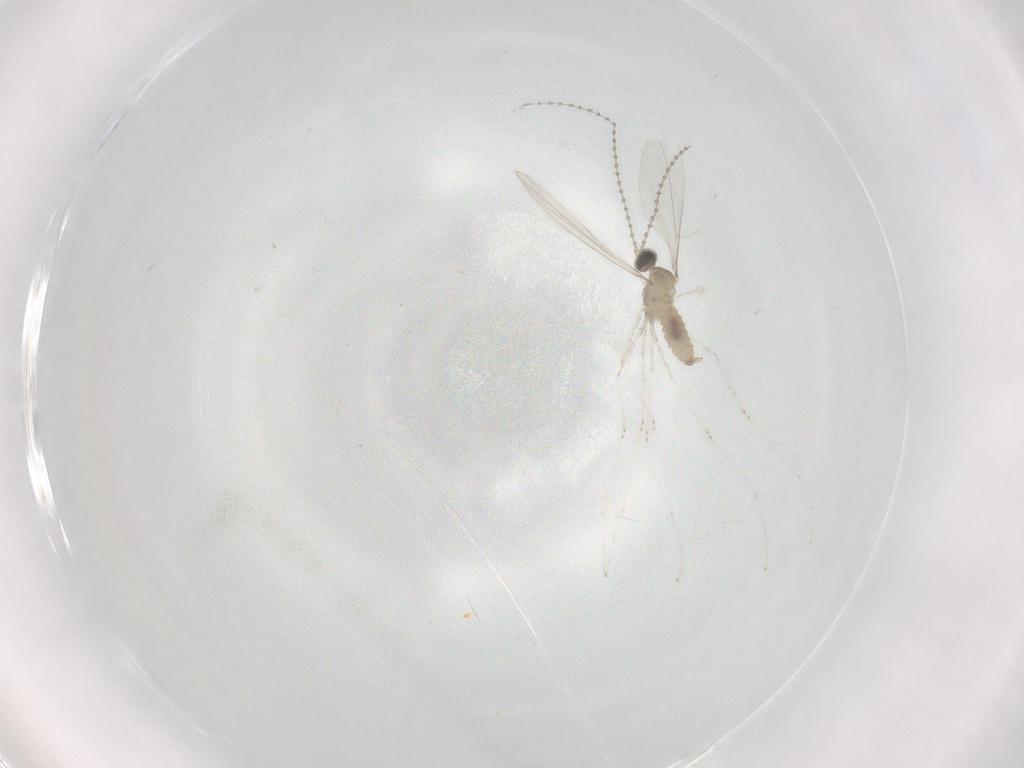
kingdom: Animalia
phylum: Arthropoda
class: Insecta
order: Diptera
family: Cecidomyiidae
